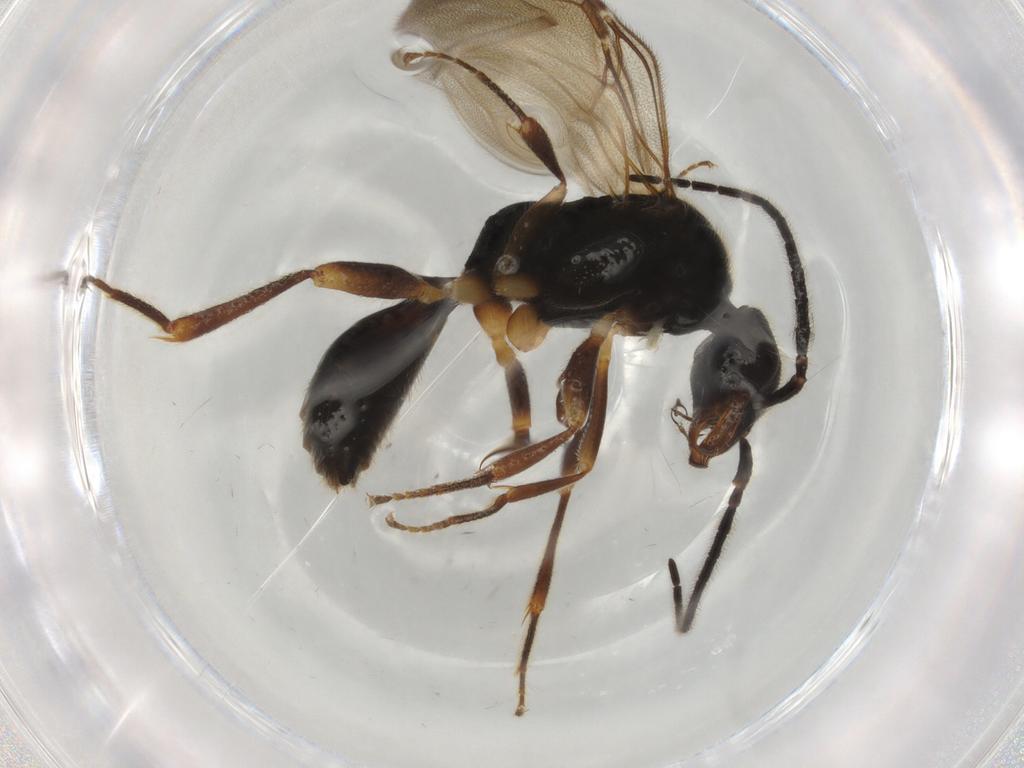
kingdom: Animalia
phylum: Arthropoda
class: Insecta
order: Hymenoptera
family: Bethylidae
